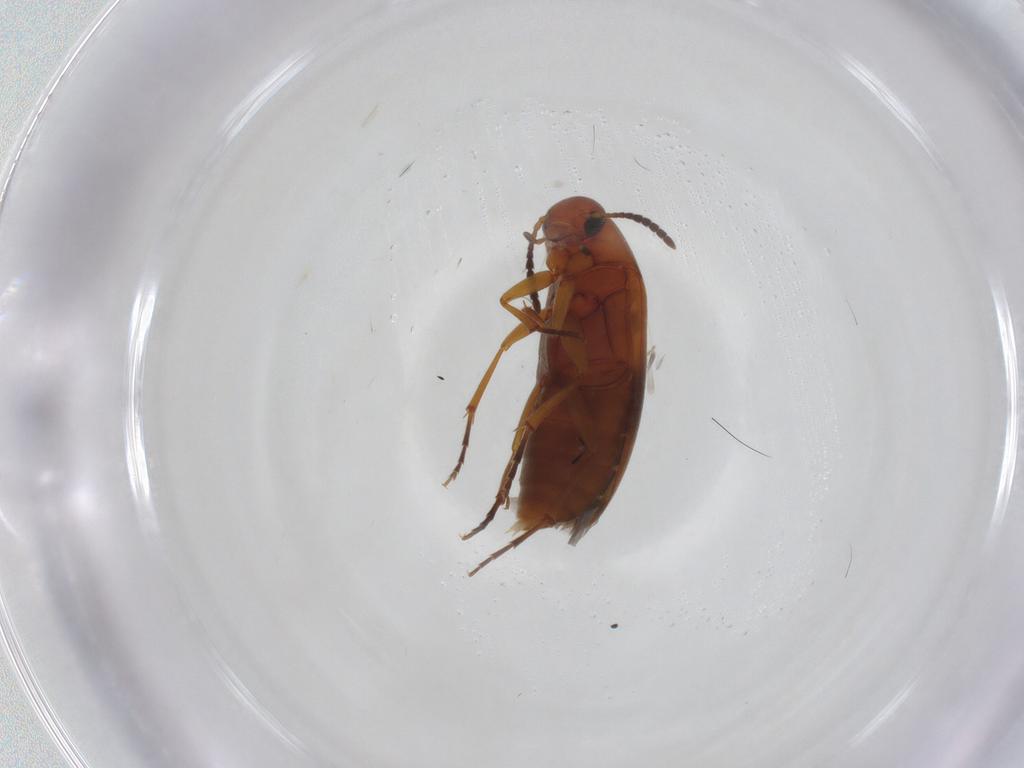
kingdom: Animalia
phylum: Arthropoda
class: Insecta
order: Coleoptera
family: Scraptiidae
